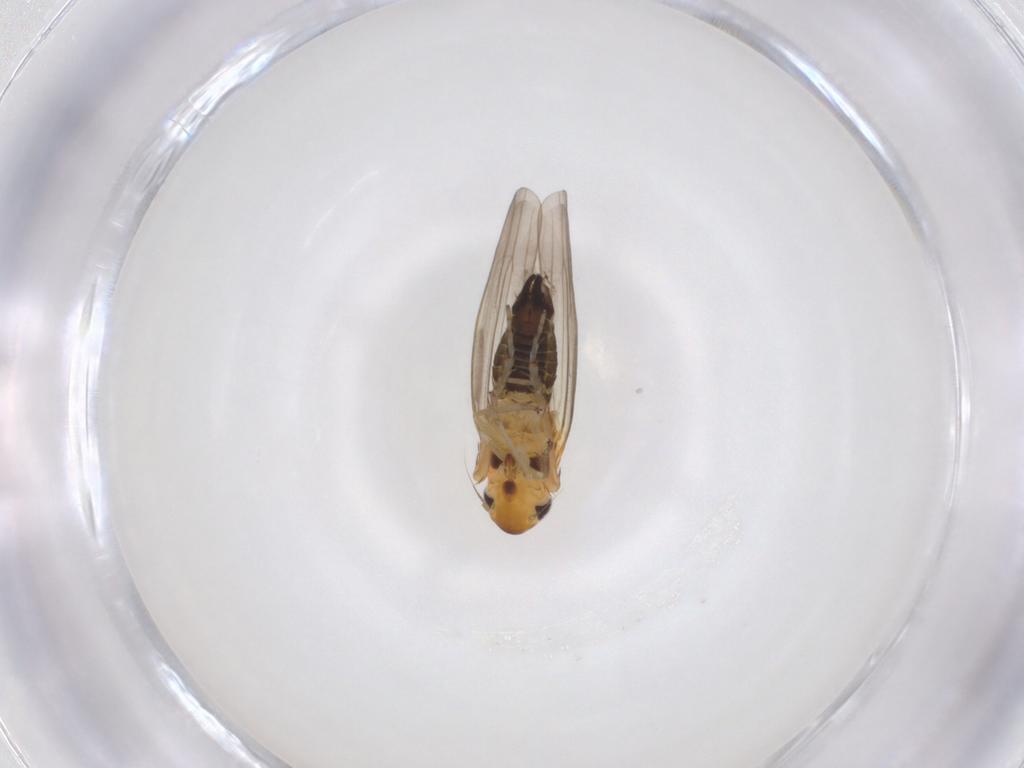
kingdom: Animalia
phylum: Arthropoda
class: Insecta
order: Hemiptera
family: Cicadellidae
